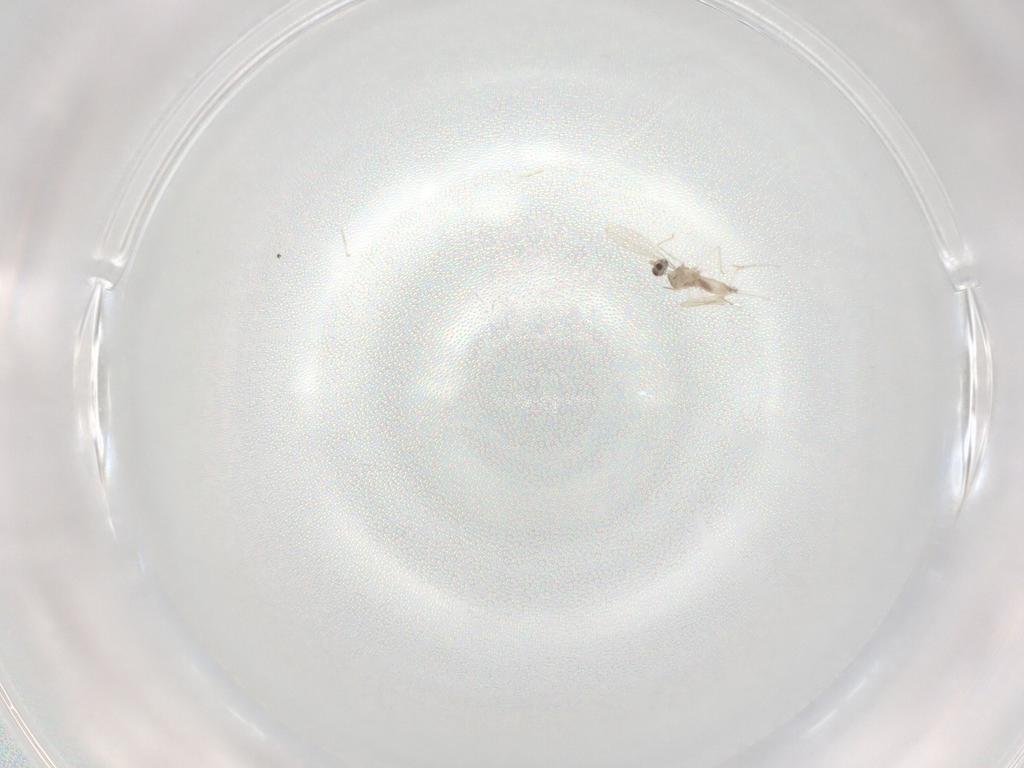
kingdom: Animalia
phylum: Arthropoda
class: Insecta
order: Diptera
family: Cecidomyiidae
